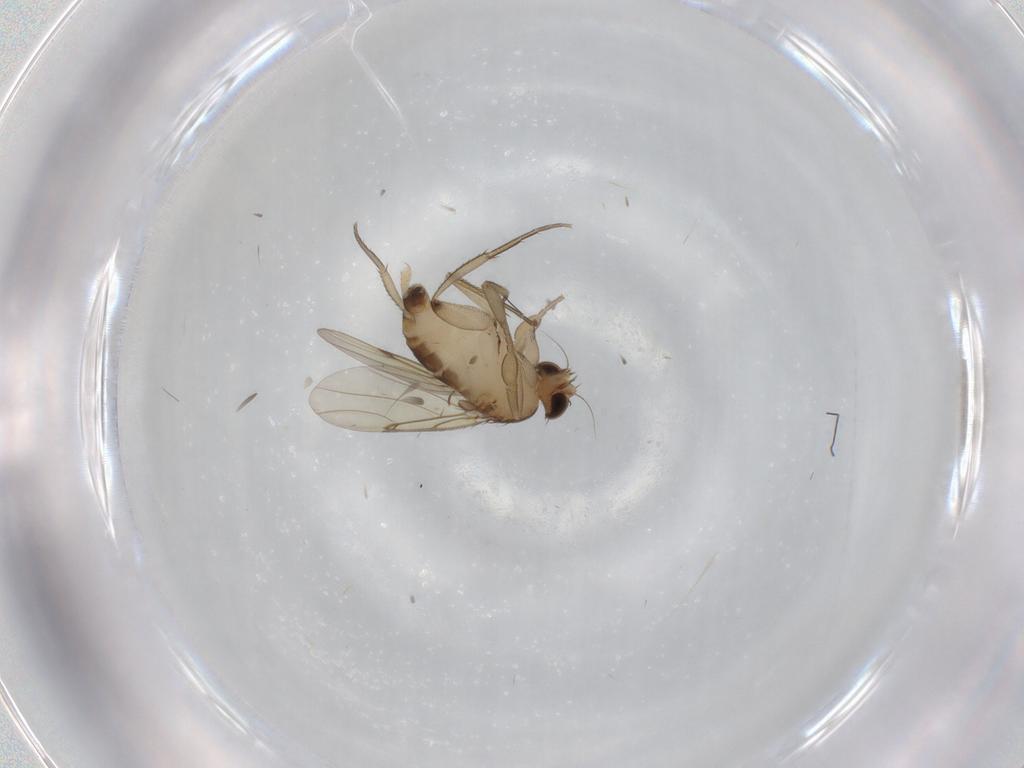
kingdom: Animalia
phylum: Arthropoda
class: Insecta
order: Diptera
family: Phoridae
